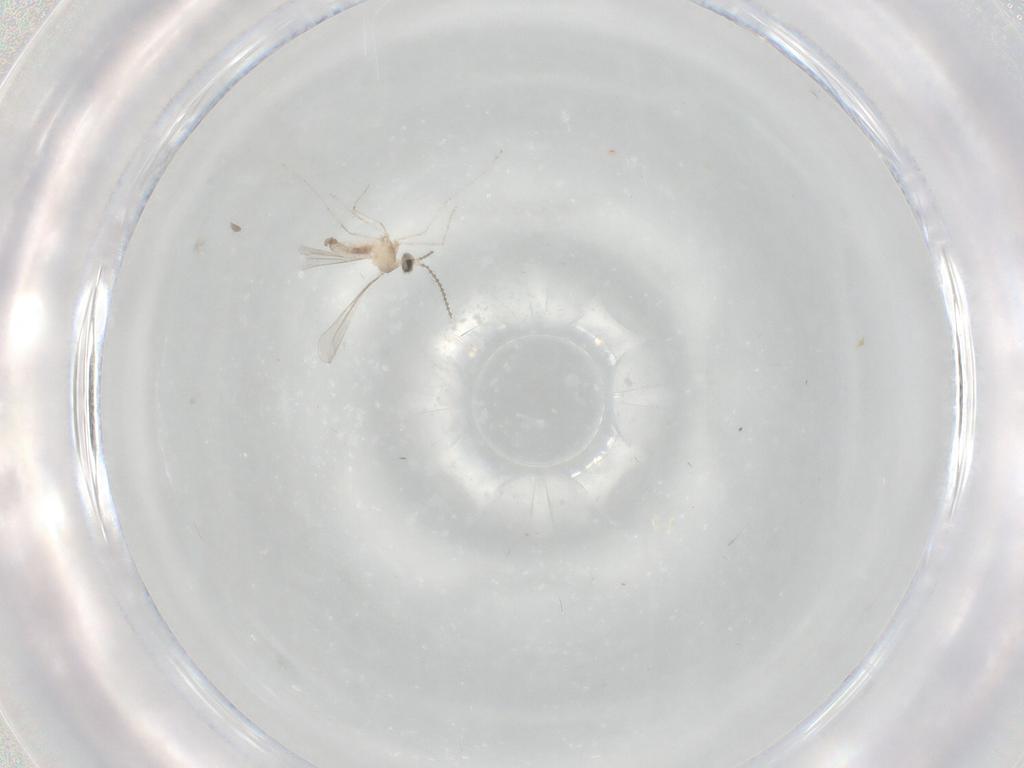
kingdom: Animalia
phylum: Arthropoda
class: Insecta
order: Diptera
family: Cecidomyiidae
